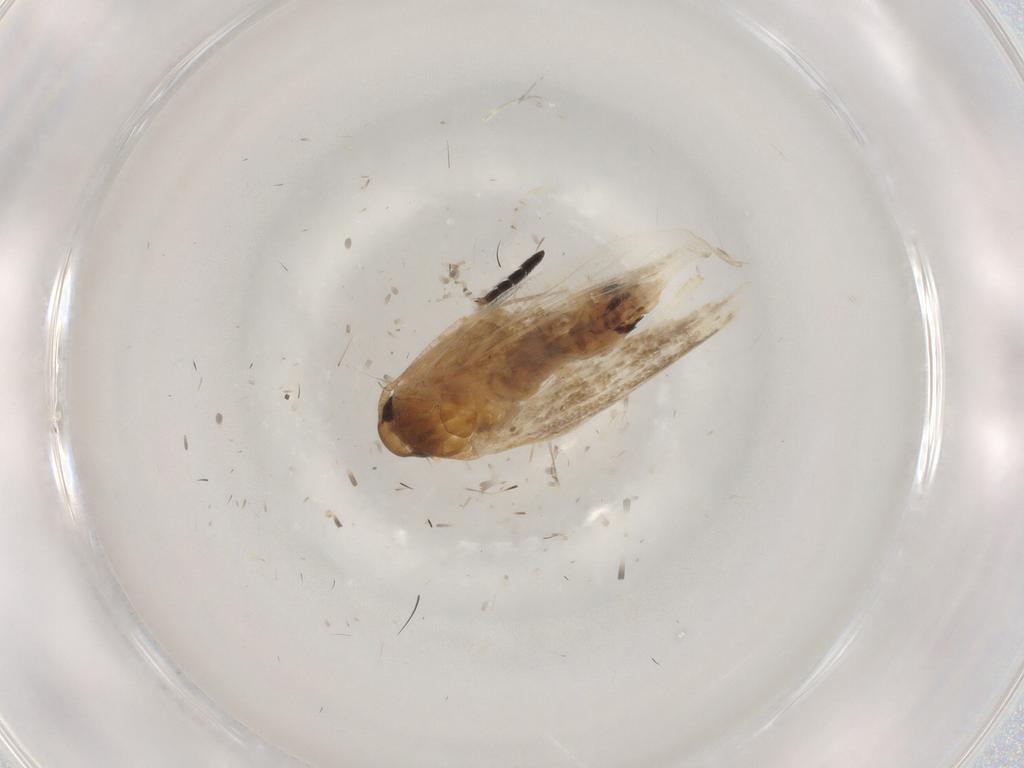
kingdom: Animalia
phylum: Arthropoda
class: Insecta
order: Lepidoptera
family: Cosmopterigidae
